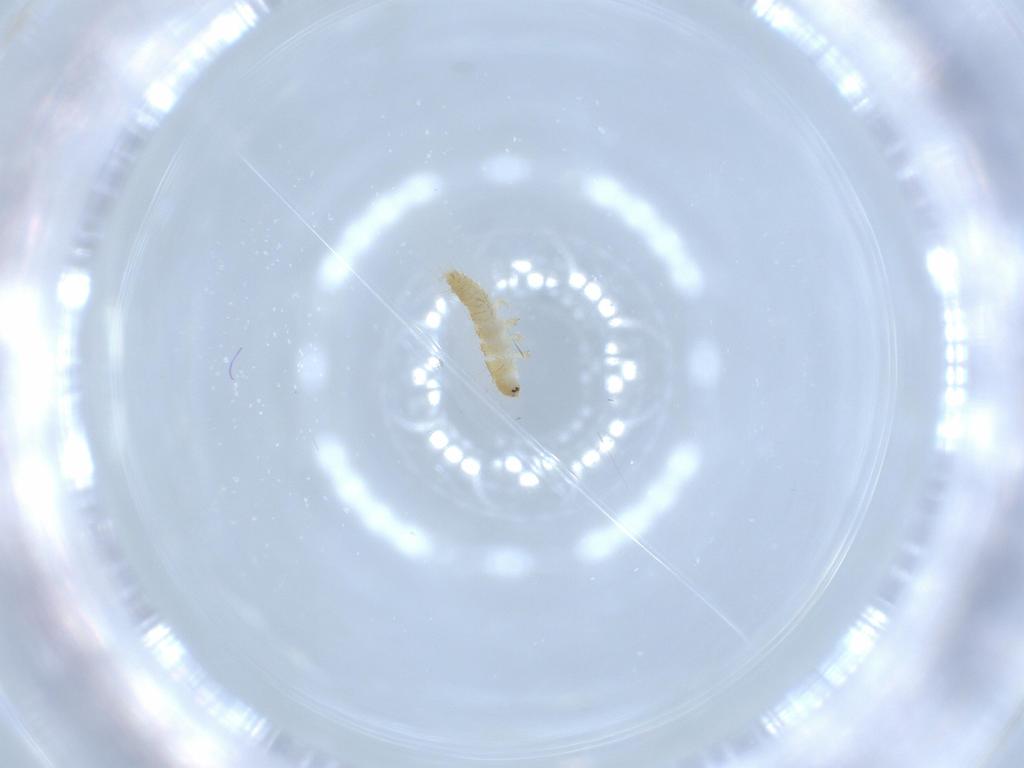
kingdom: Animalia
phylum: Arthropoda
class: Insecta
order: Coleoptera
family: Dermestidae
